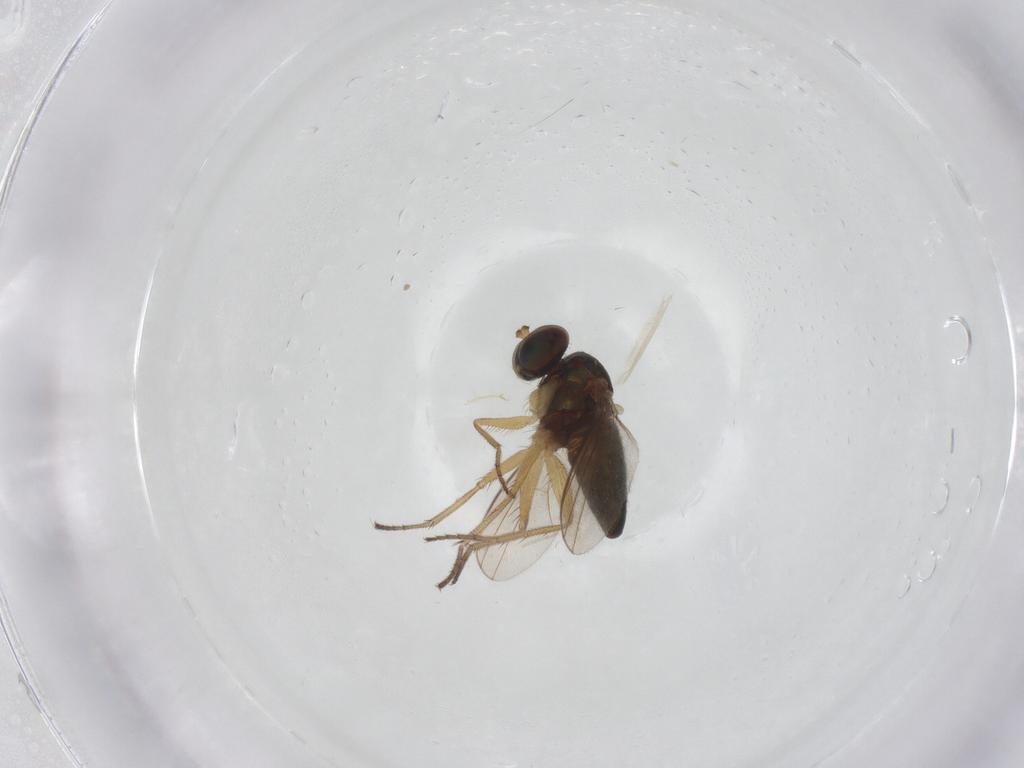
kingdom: Animalia
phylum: Arthropoda
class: Insecta
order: Diptera
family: Dolichopodidae
